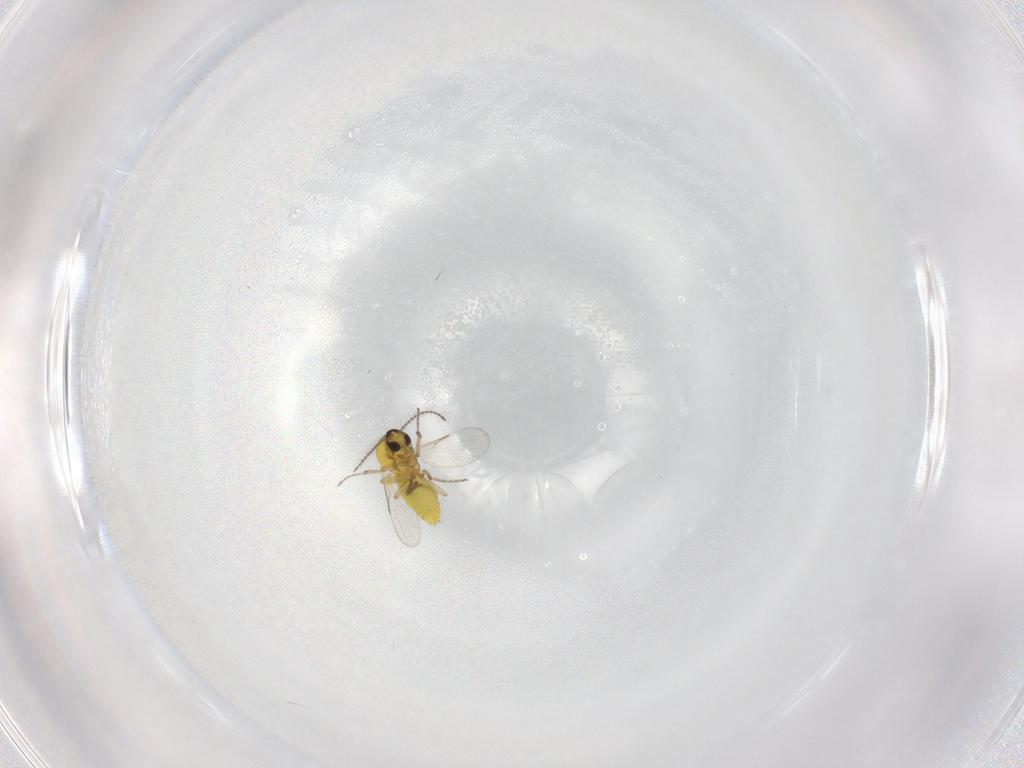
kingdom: Animalia
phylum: Arthropoda
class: Insecta
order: Diptera
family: Ceratopogonidae
